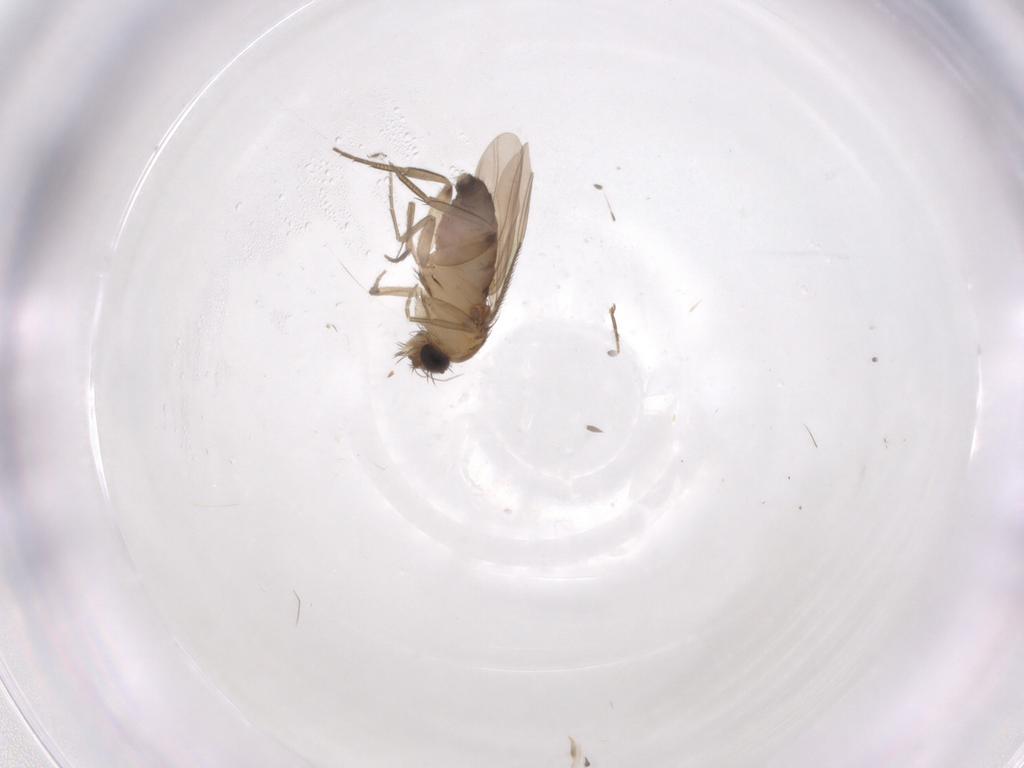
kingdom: Animalia
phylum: Arthropoda
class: Insecta
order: Diptera
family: Phoridae
